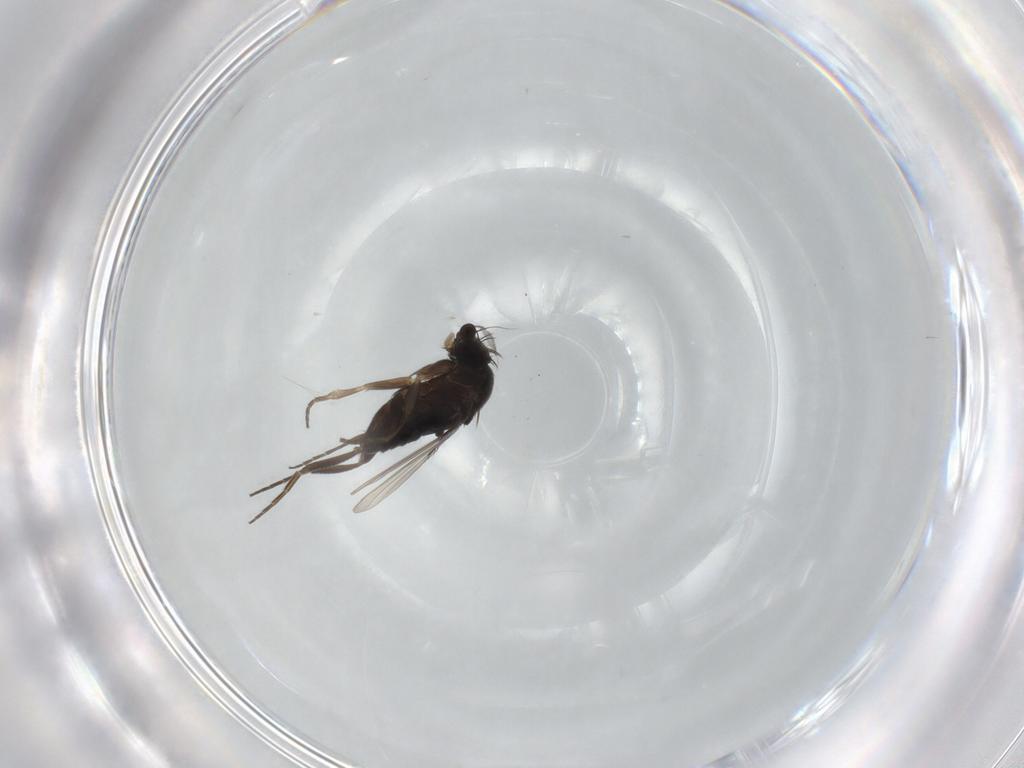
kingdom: Animalia
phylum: Arthropoda
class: Insecta
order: Diptera
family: Phoridae
